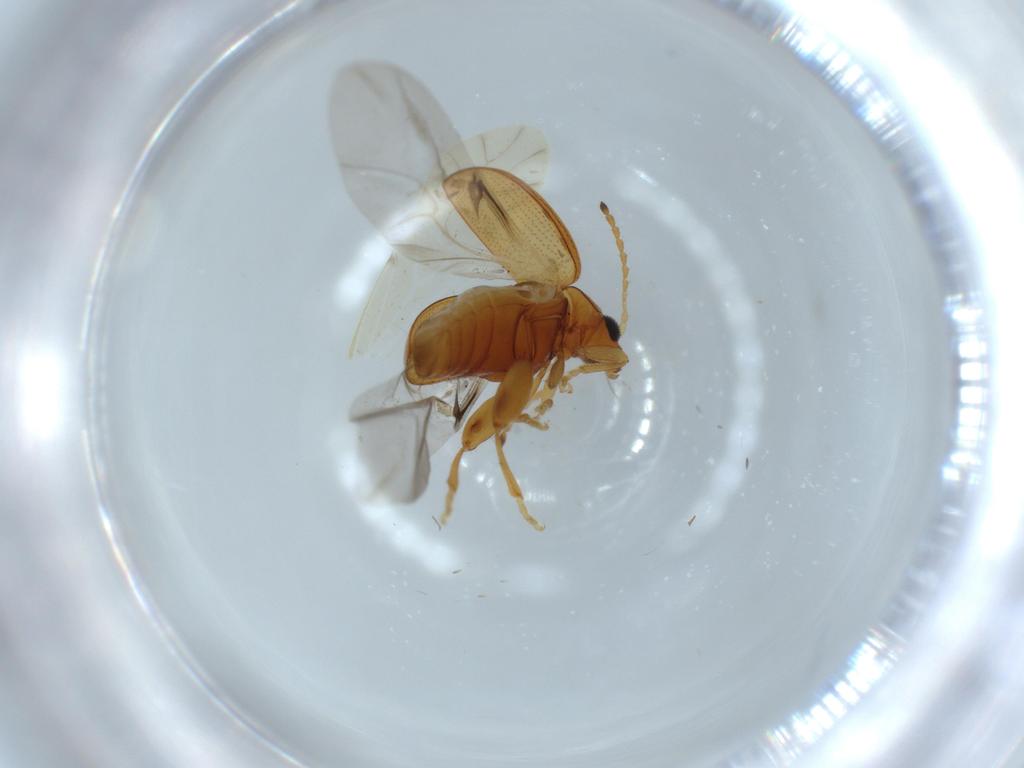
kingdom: Animalia
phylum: Arthropoda
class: Insecta
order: Coleoptera
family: Chrysomelidae
